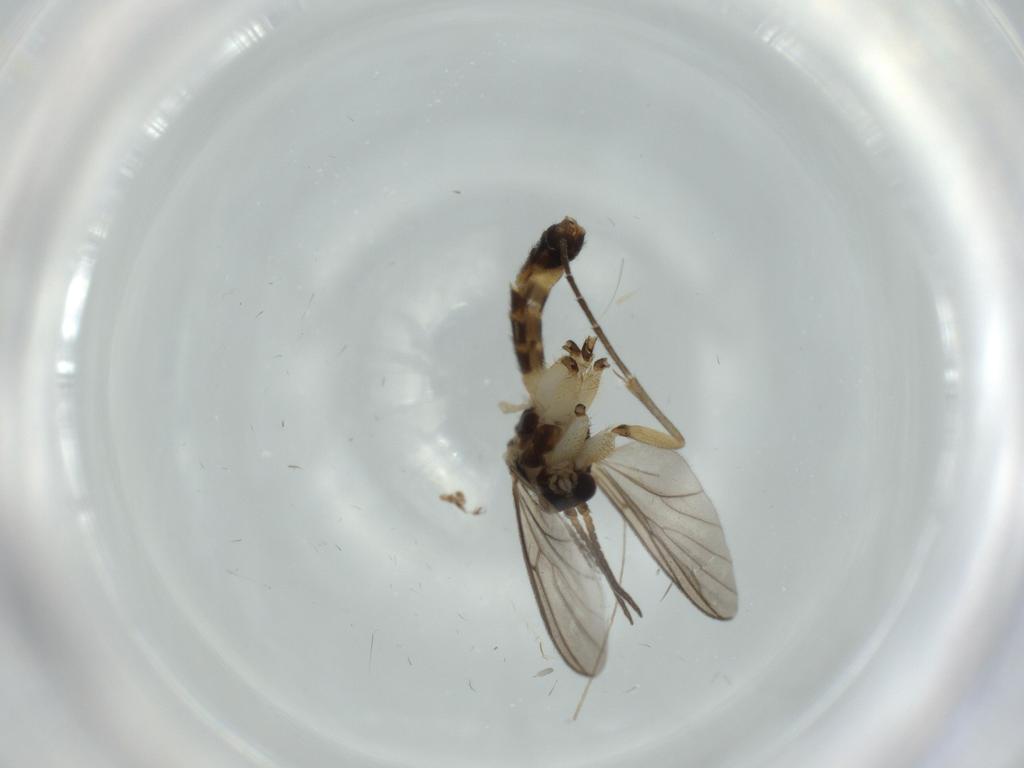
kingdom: Animalia
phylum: Arthropoda
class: Insecta
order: Diptera
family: Mycetophilidae
